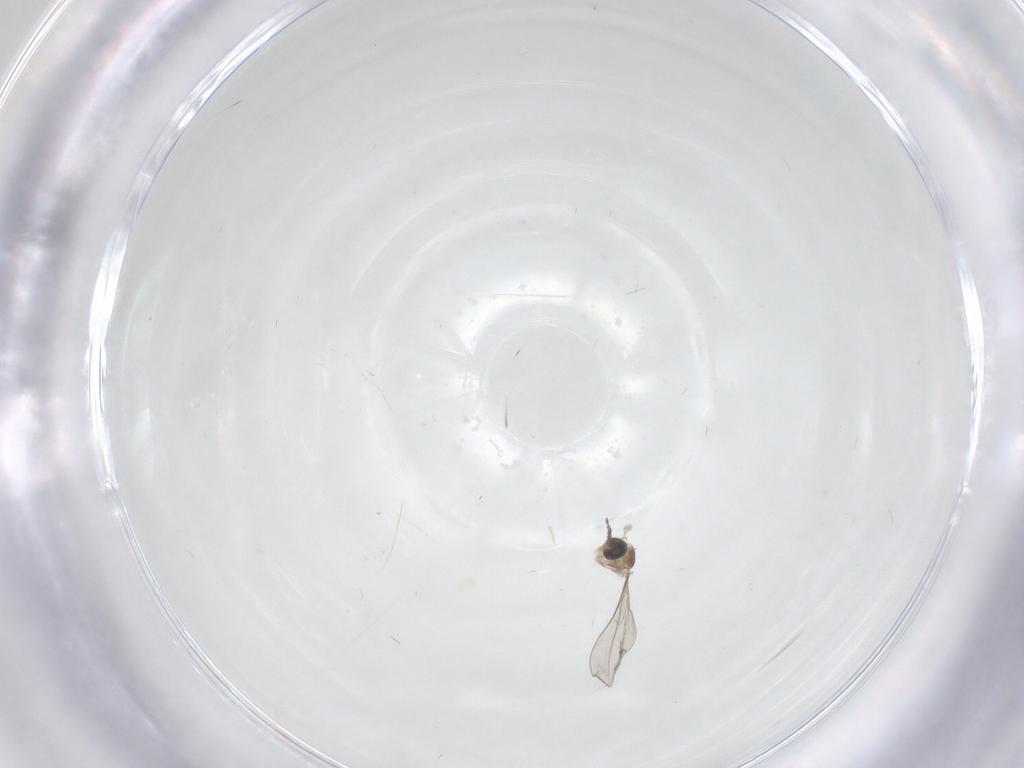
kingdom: Animalia
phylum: Arthropoda
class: Insecta
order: Diptera
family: Cecidomyiidae
